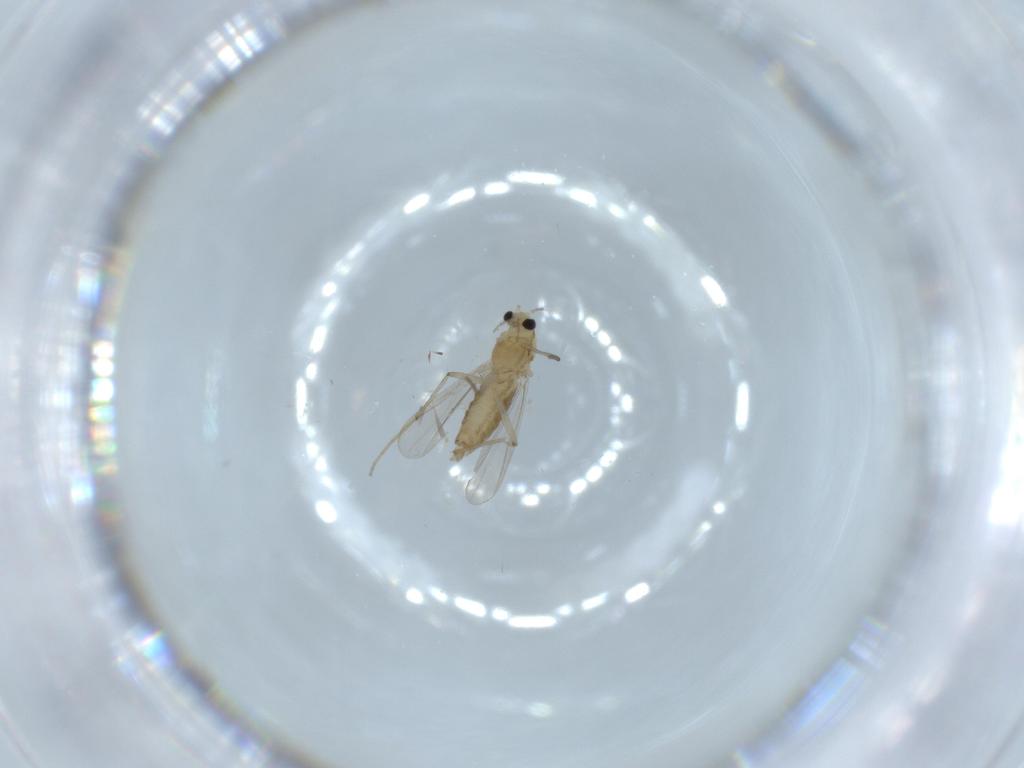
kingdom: Animalia
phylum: Arthropoda
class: Insecta
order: Diptera
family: Chironomidae
